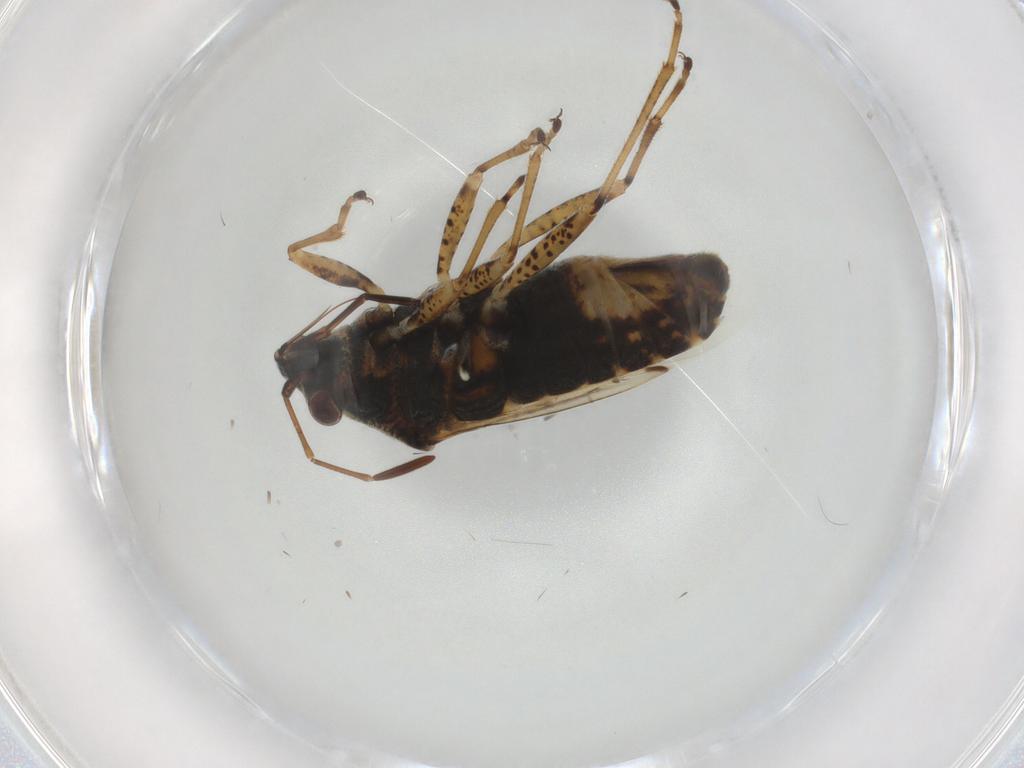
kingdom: Animalia
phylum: Arthropoda
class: Insecta
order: Hemiptera
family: Lygaeidae
